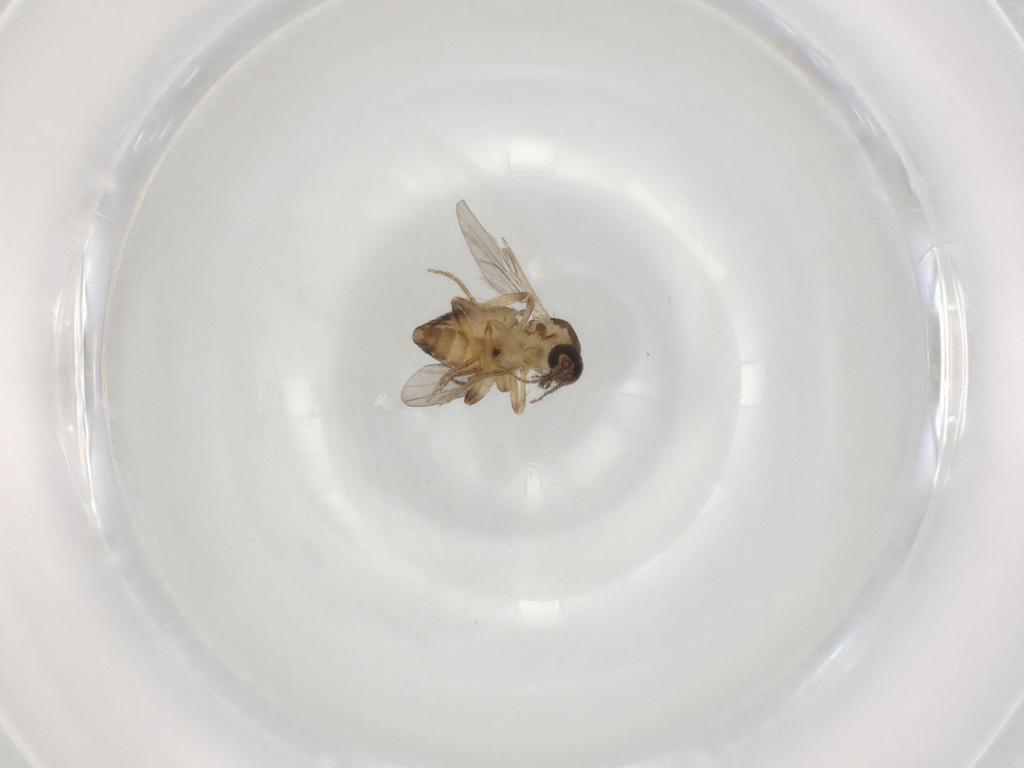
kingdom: Animalia
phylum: Arthropoda
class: Insecta
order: Diptera
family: Ceratopogonidae
